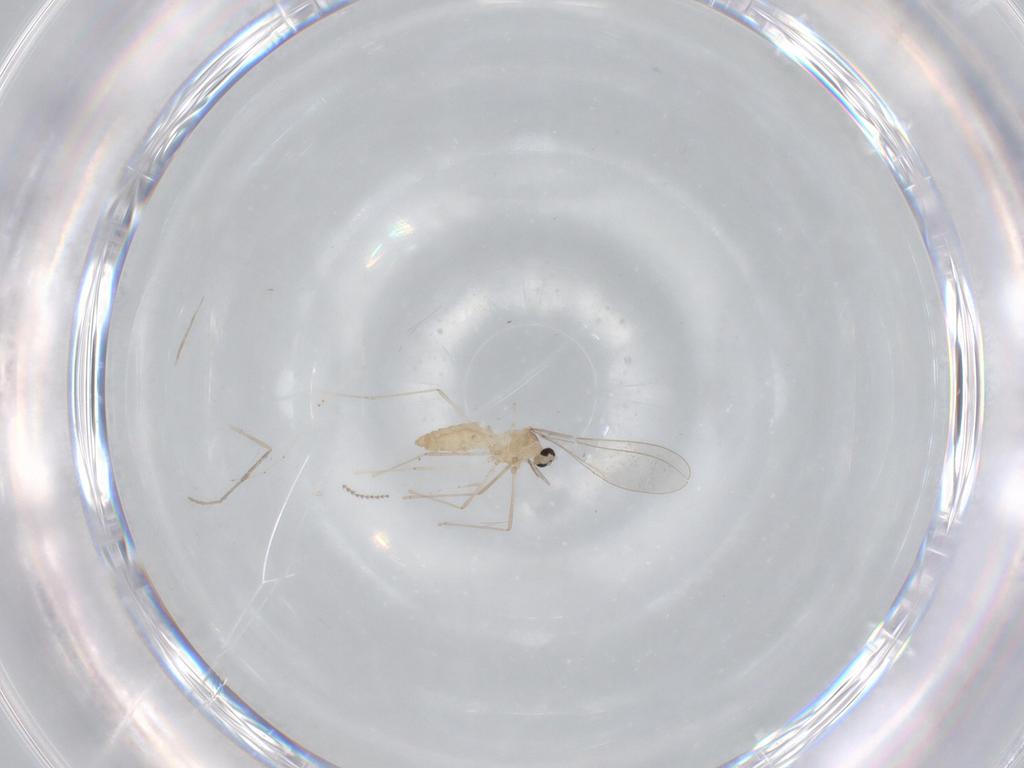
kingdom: Animalia
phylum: Arthropoda
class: Insecta
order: Diptera
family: Cecidomyiidae
